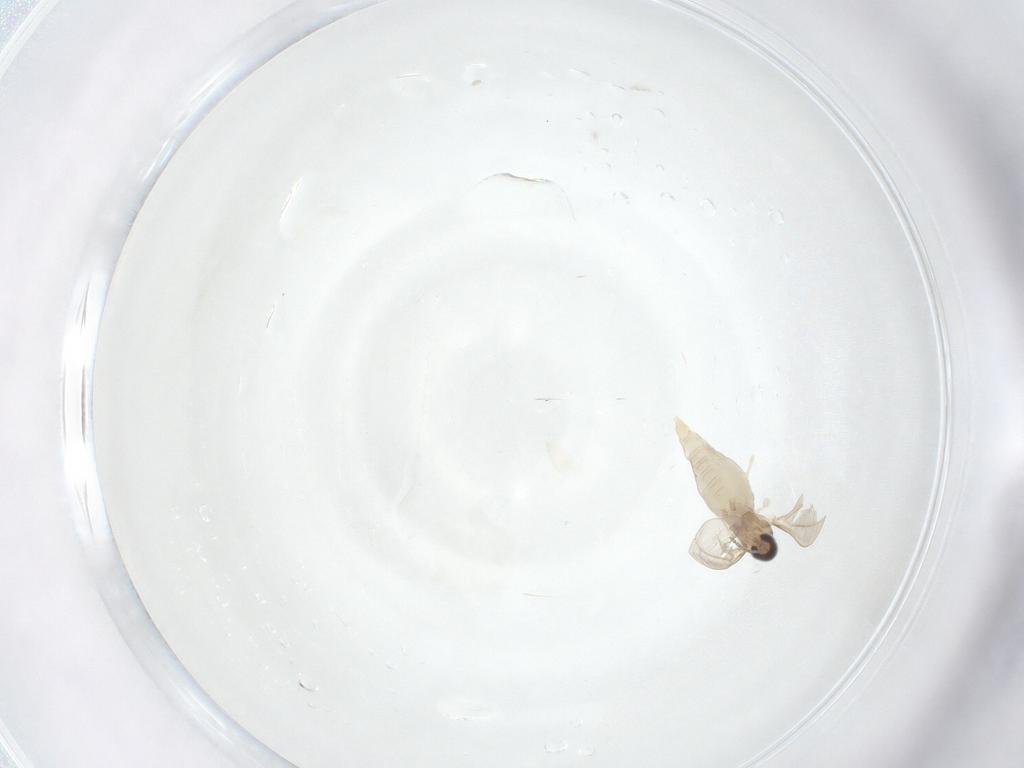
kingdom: Animalia
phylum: Arthropoda
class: Insecta
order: Diptera
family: Cecidomyiidae
